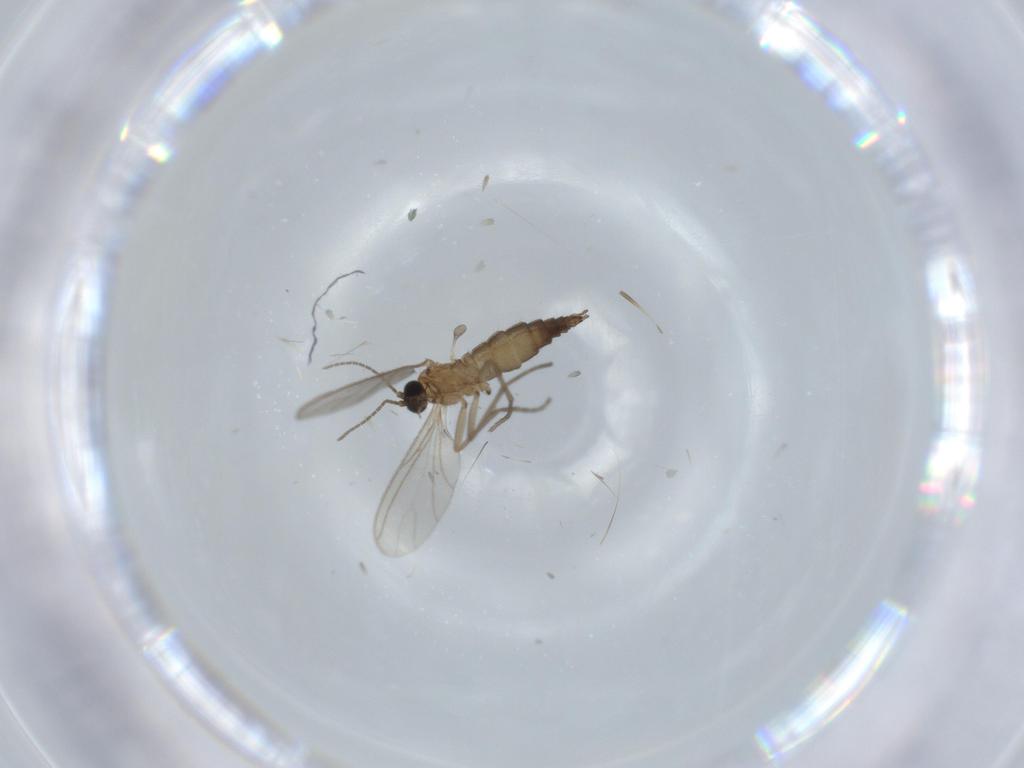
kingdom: Animalia
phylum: Arthropoda
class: Insecta
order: Diptera
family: Sciaridae
